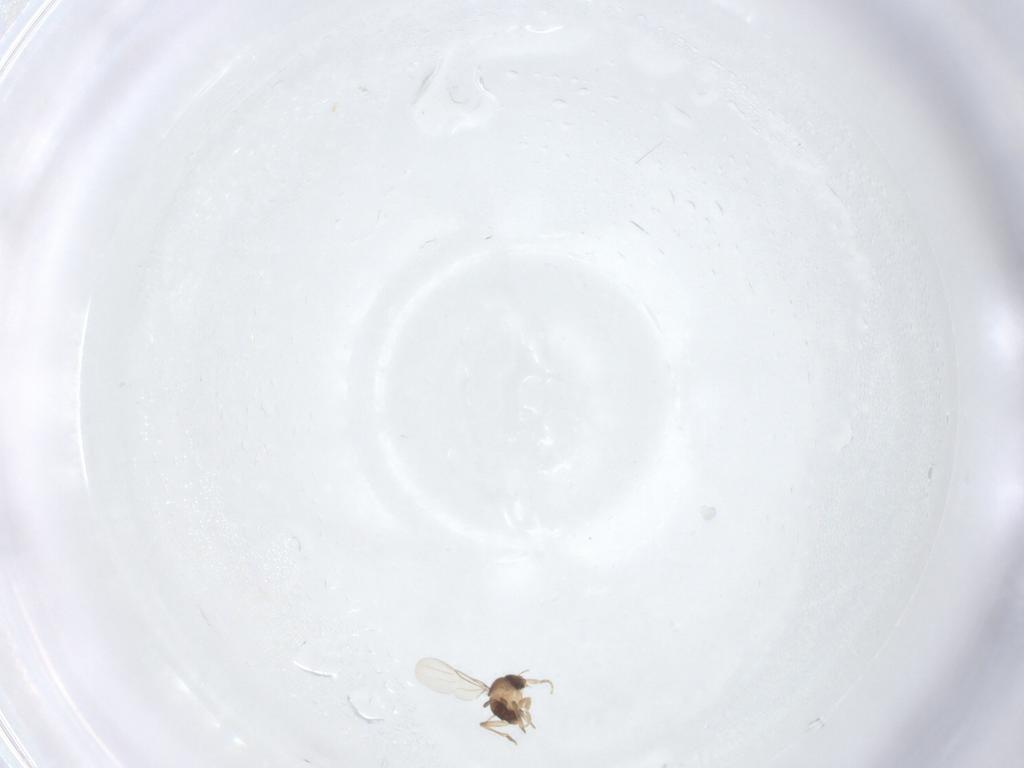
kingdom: Animalia
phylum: Arthropoda
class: Insecta
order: Diptera
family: Phoridae
